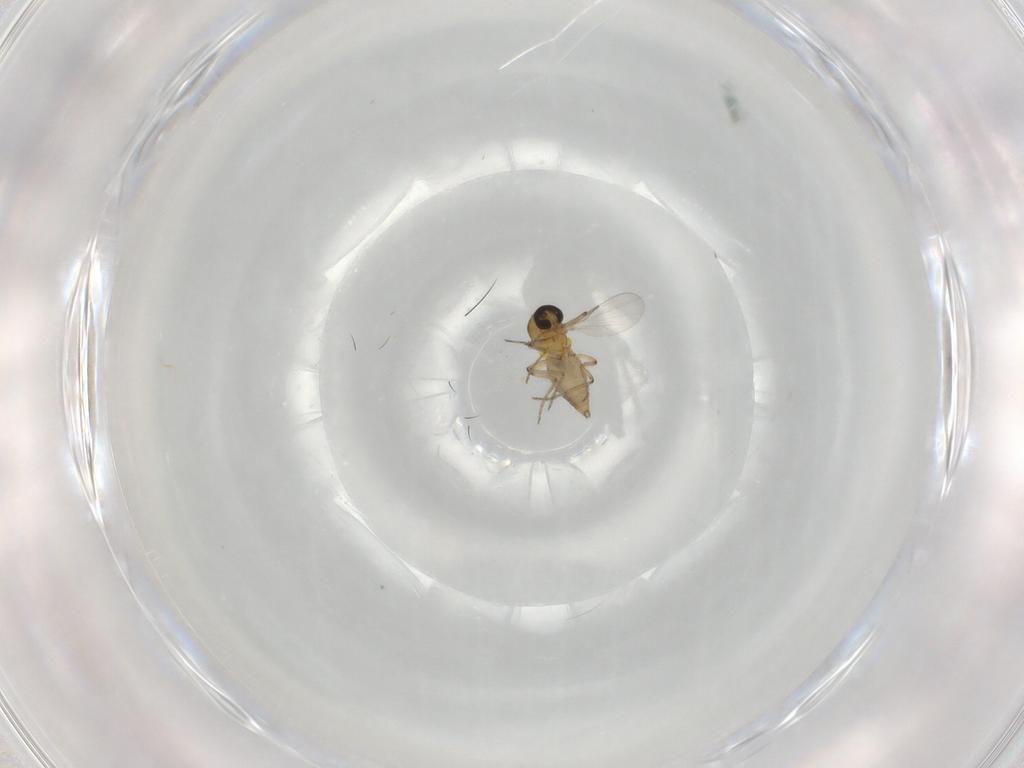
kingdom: Animalia
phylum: Arthropoda
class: Insecta
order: Diptera
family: Ceratopogonidae
